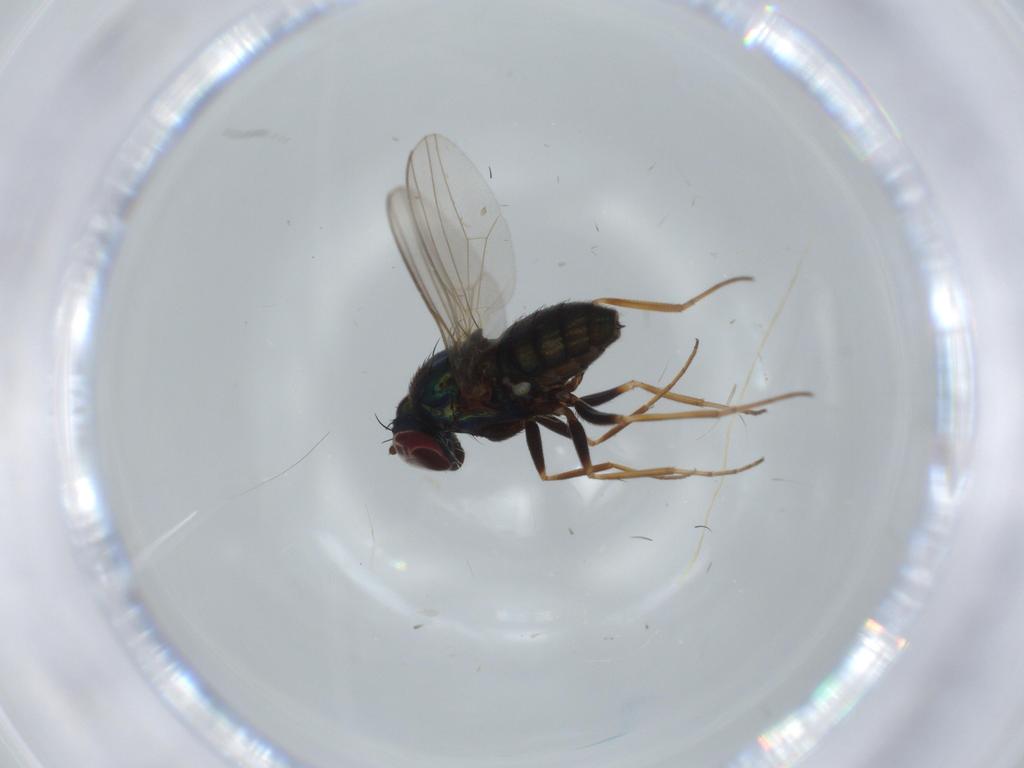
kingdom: Animalia
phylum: Arthropoda
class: Insecta
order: Diptera
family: Dolichopodidae
